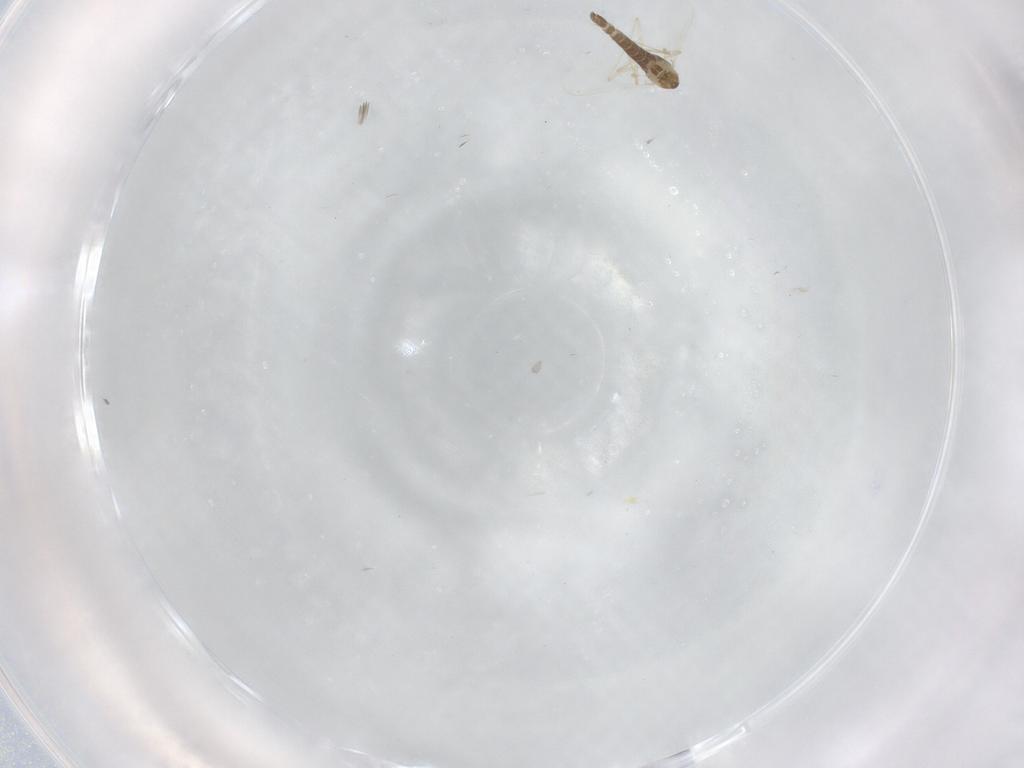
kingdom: Animalia
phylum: Arthropoda
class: Insecta
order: Diptera
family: Chironomidae
